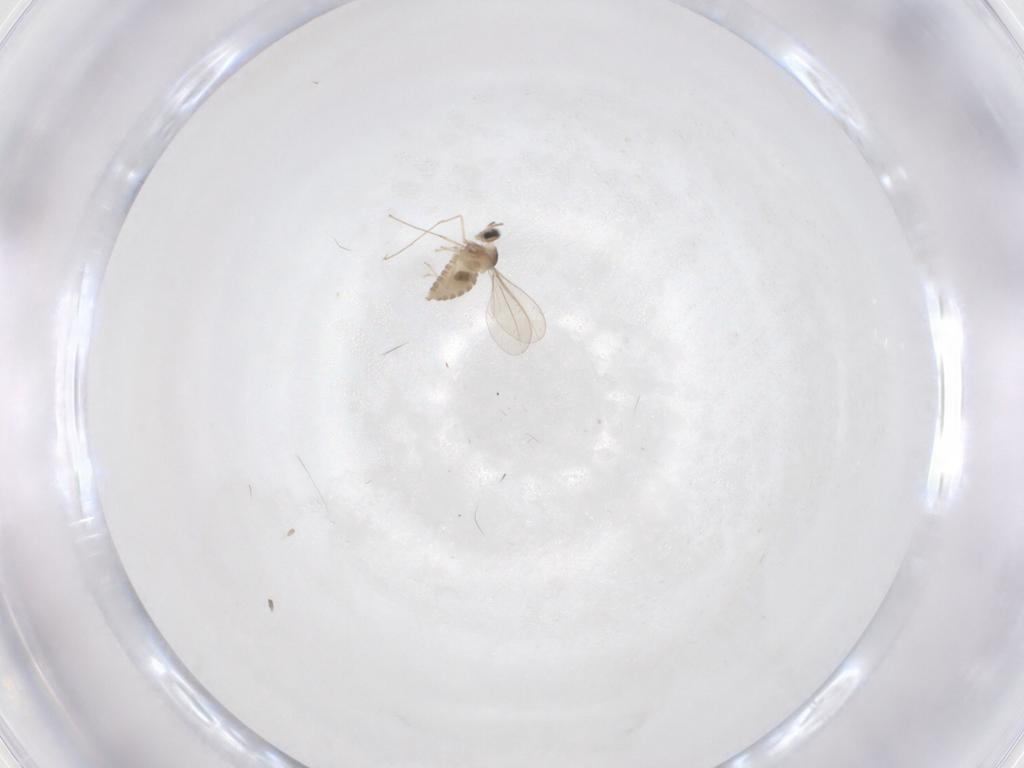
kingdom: Animalia
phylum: Arthropoda
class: Insecta
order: Diptera
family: Cecidomyiidae
